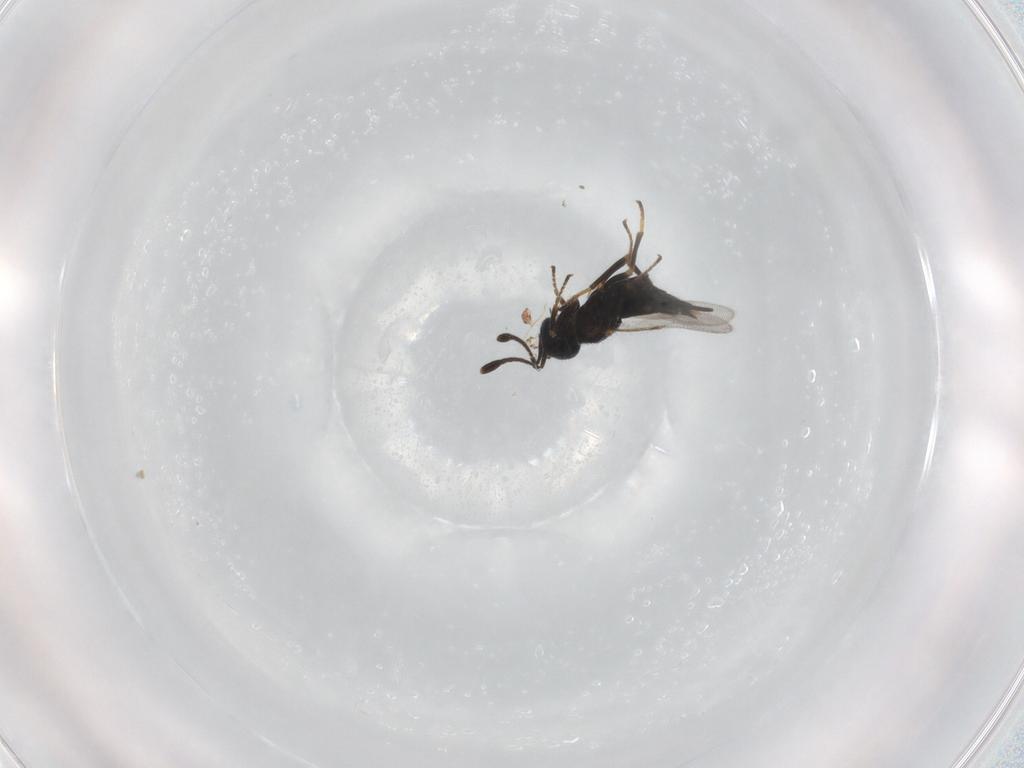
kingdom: Animalia
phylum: Arthropoda
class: Insecta
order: Hymenoptera
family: Encyrtidae
